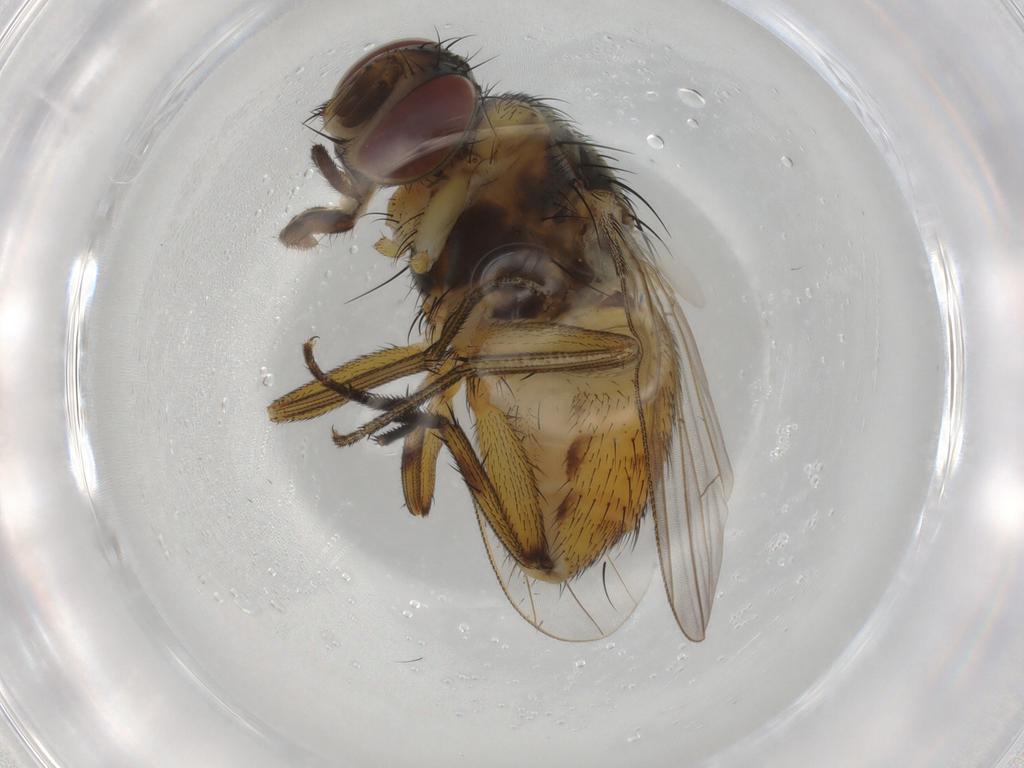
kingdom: Animalia
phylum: Arthropoda
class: Insecta
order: Diptera
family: Muscidae
